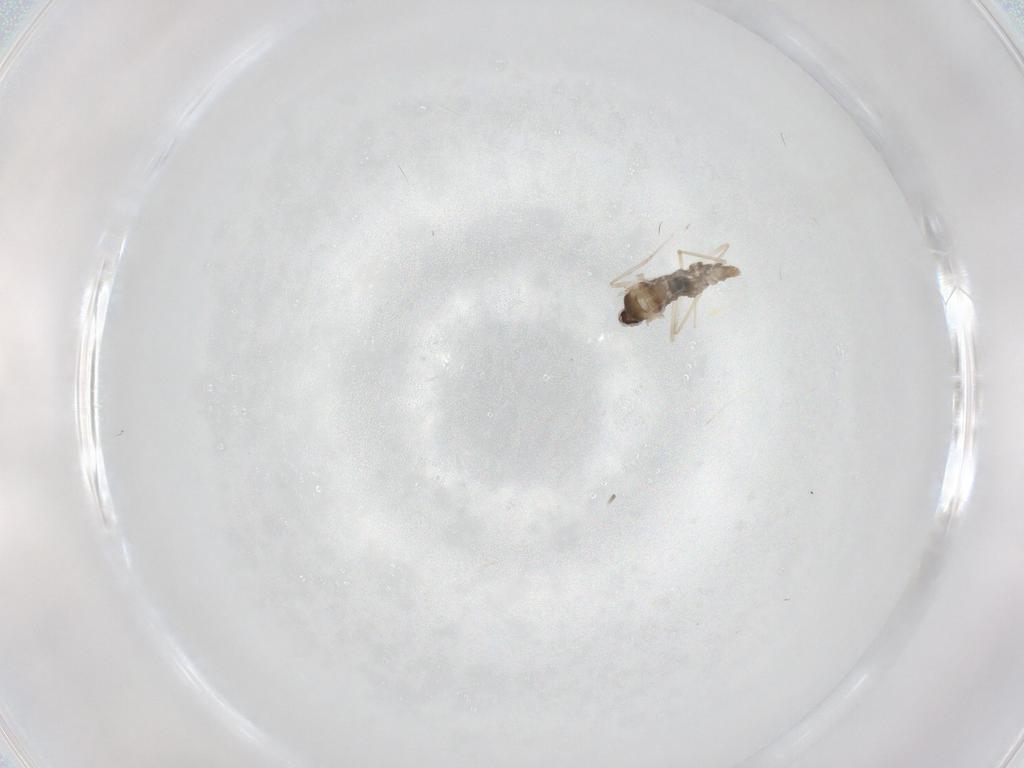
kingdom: Animalia
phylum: Arthropoda
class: Insecta
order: Diptera
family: Cecidomyiidae
